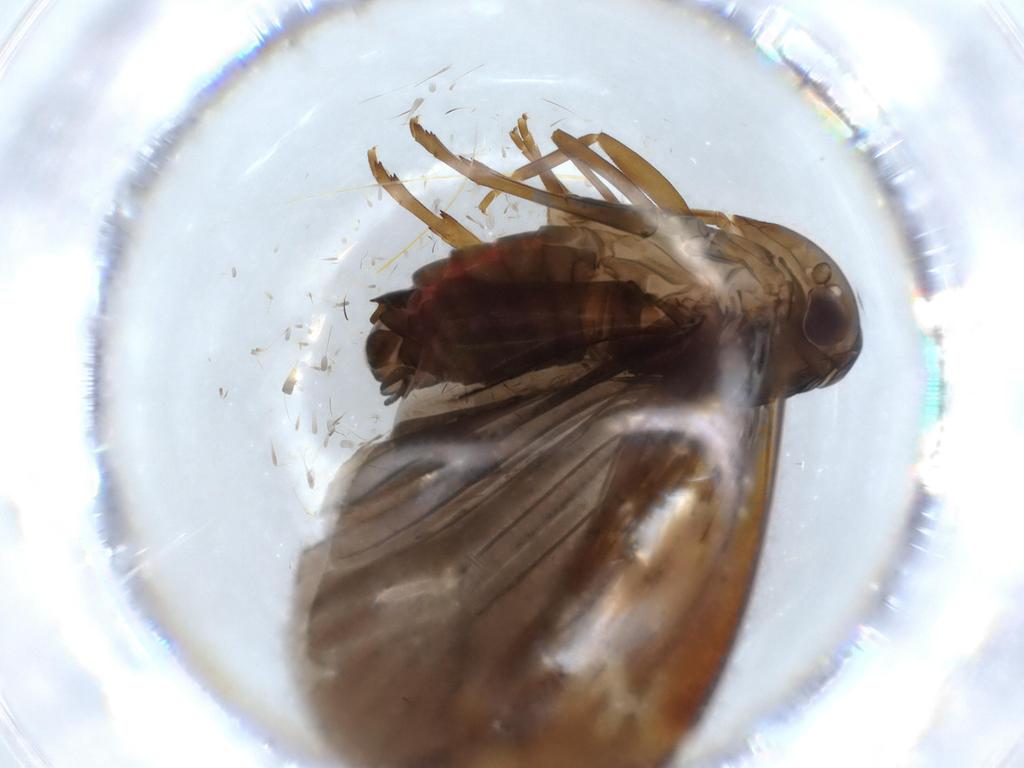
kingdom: Animalia
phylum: Arthropoda
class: Insecta
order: Hemiptera
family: Achilidae
